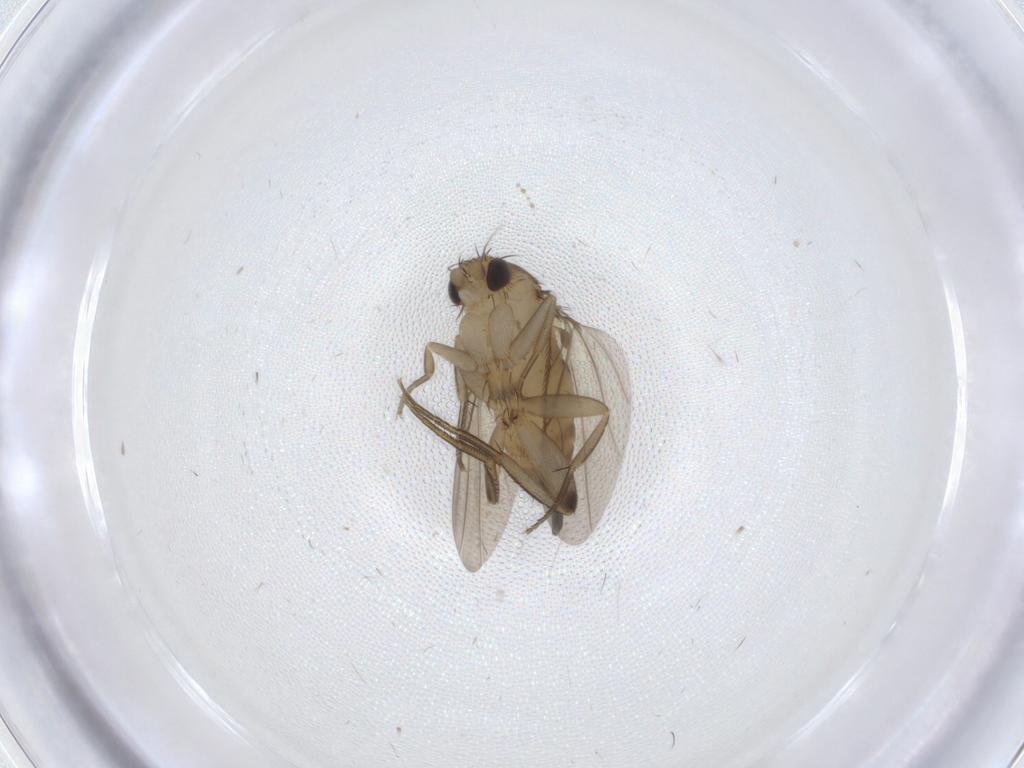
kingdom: Animalia
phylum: Arthropoda
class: Insecta
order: Diptera
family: Phoridae
